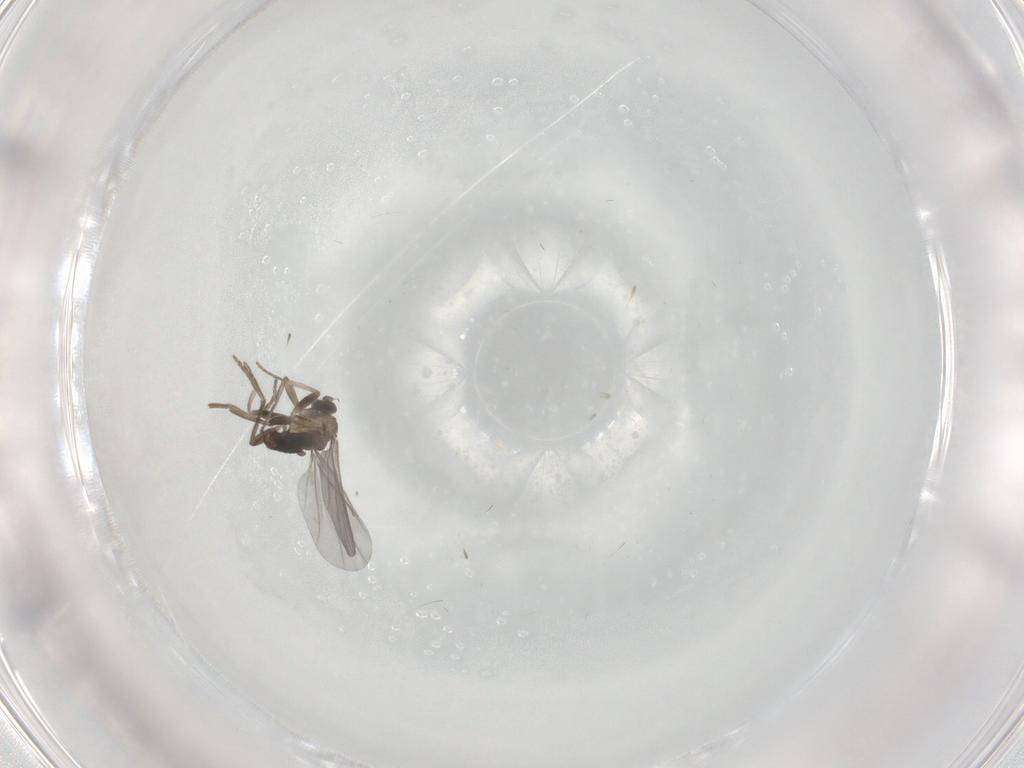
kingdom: Animalia
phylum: Arthropoda
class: Insecta
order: Diptera
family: Phoridae
